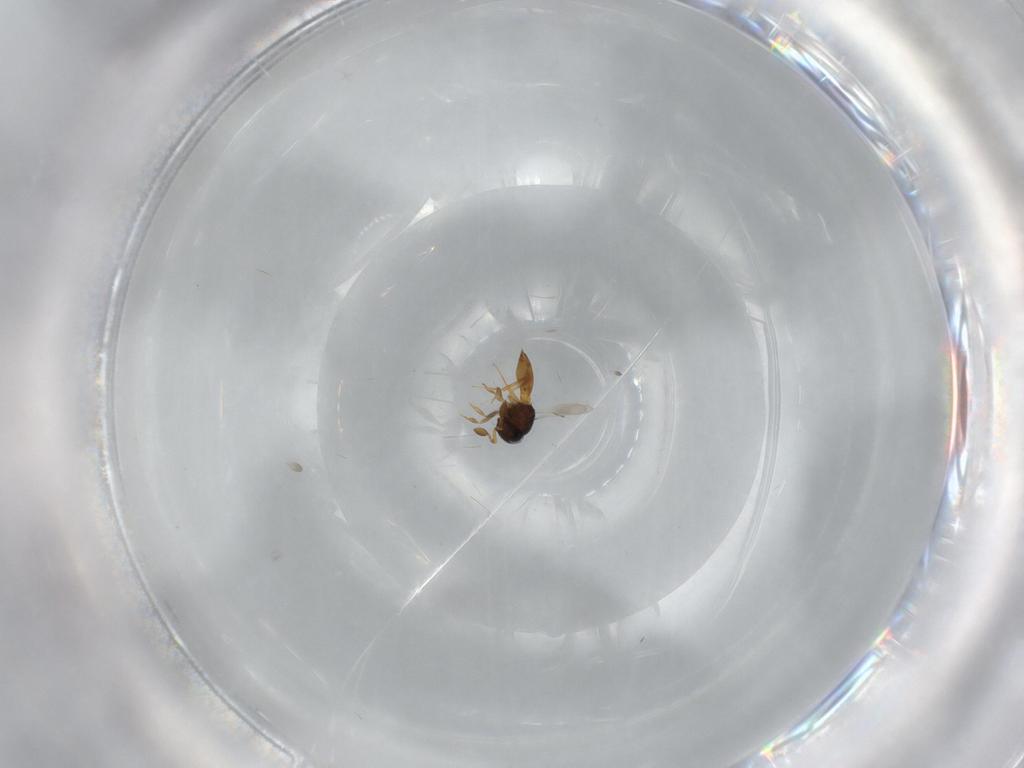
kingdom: Animalia
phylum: Arthropoda
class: Insecta
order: Hymenoptera
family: Scelionidae
